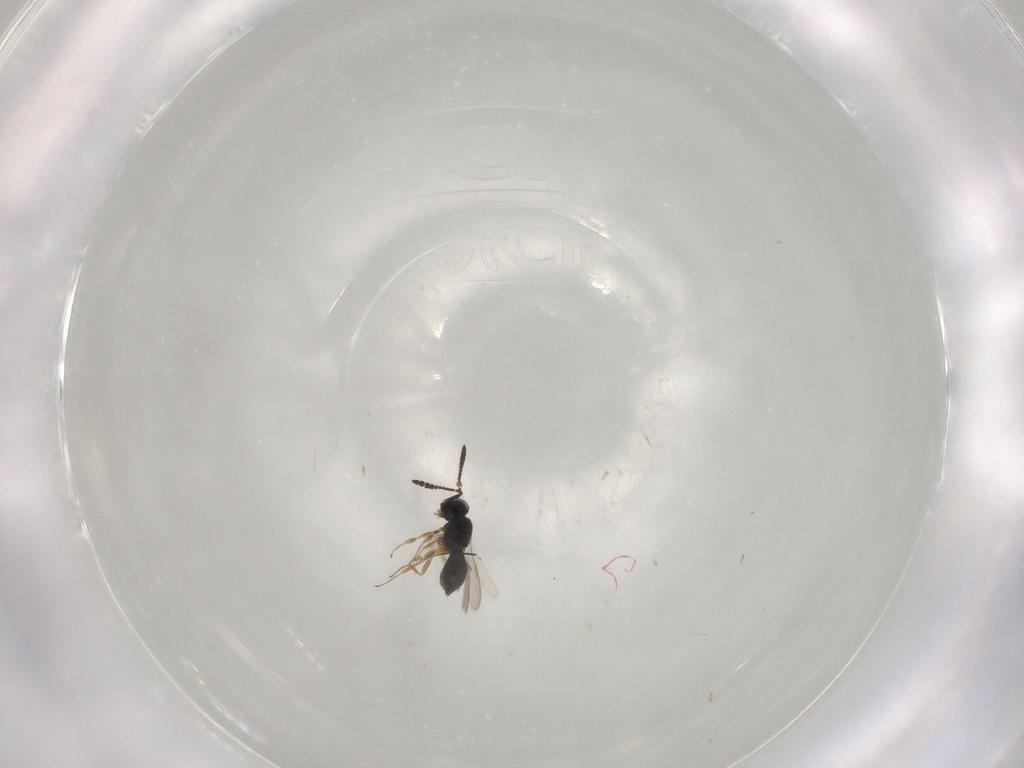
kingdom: Animalia
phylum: Arthropoda
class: Insecta
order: Hymenoptera
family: Scelionidae
